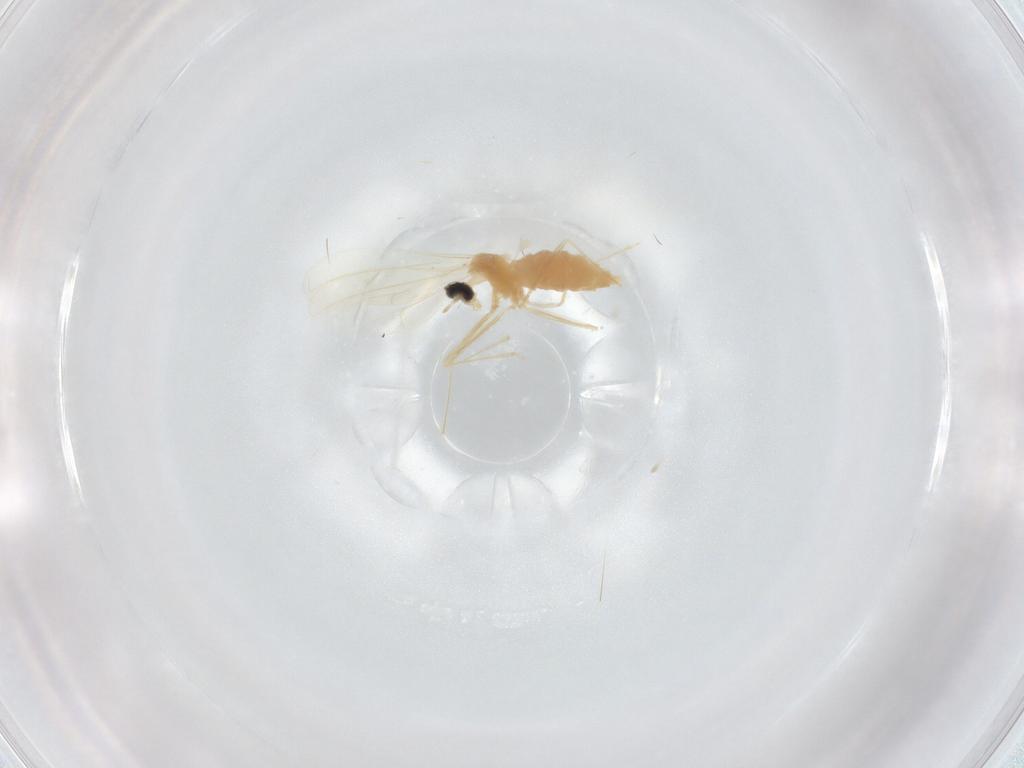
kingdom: Animalia
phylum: Arthropoda
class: Insecta
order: Diptera
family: Cecidomyiidae
